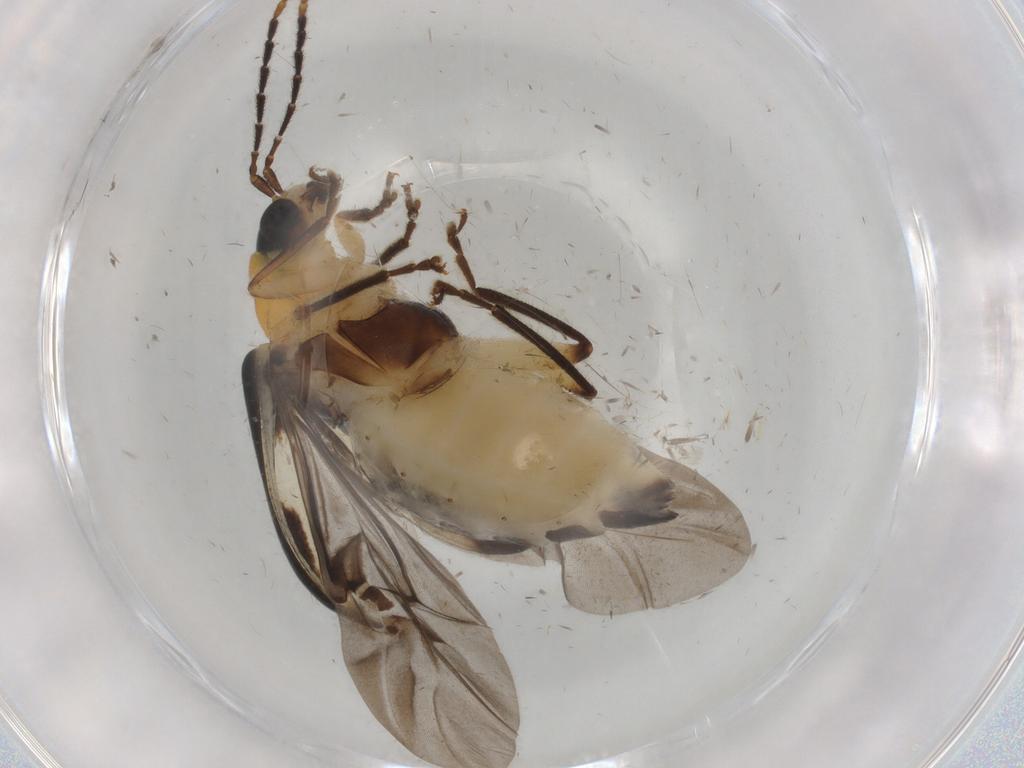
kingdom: Animalia
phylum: Arthropoda
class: Insecta
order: Coleoptera
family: Chrysomelidae
